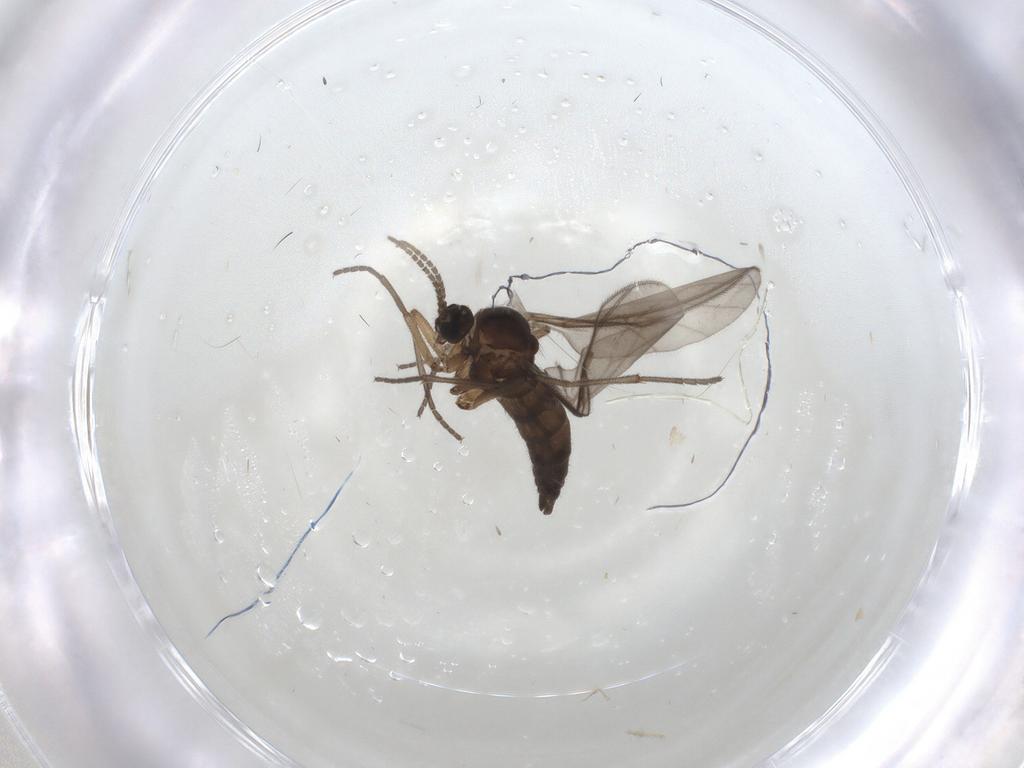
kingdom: Animalia
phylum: Arthropoda
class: Insecta
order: Diptera
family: Sciaridae
